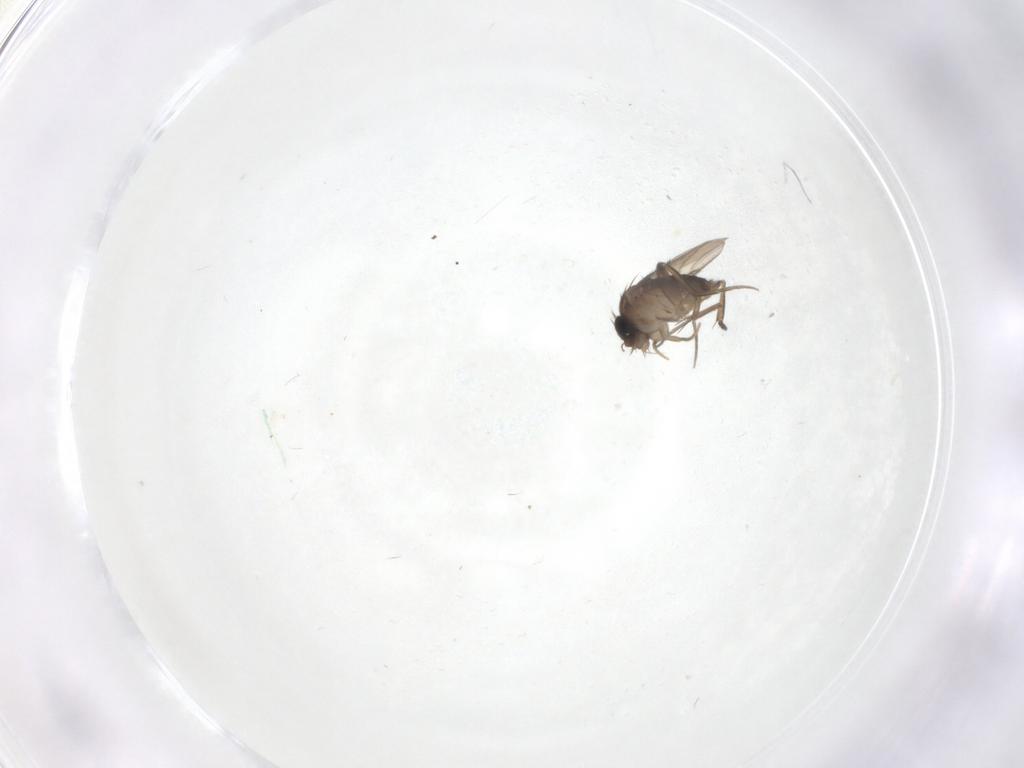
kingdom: Animalia
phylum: Arthropoda
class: Insecta
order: Diptera
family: Phoridae
